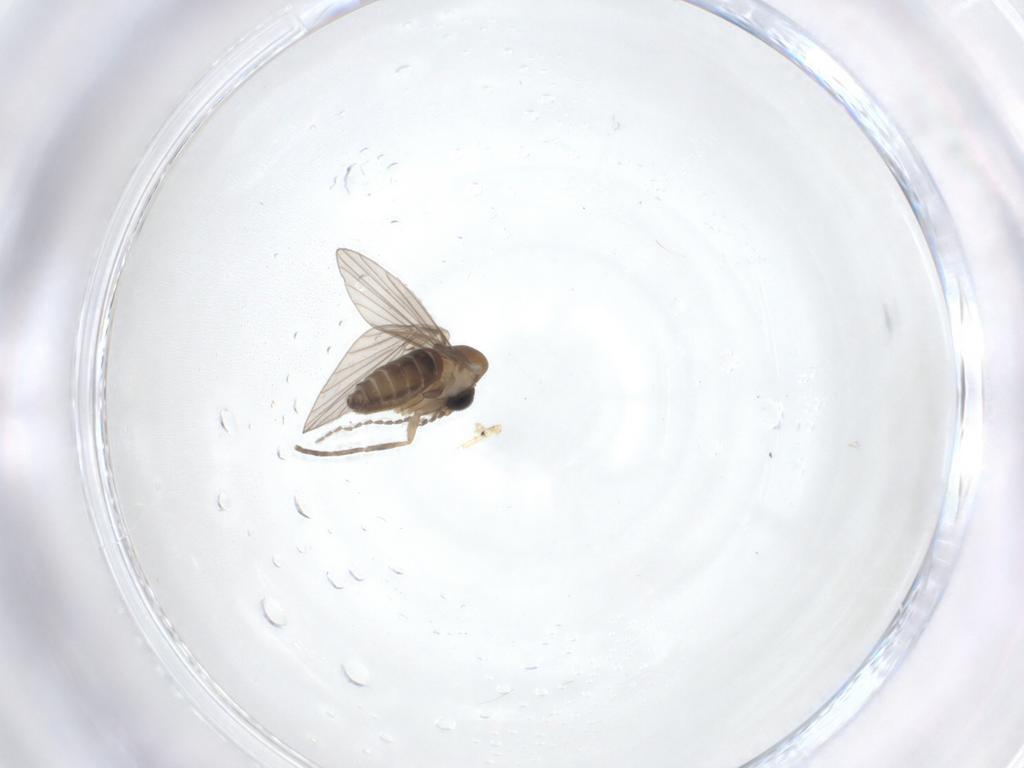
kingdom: Animalia
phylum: Arthropoda
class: Insecta
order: Diptera
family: Cecidomyiidae
